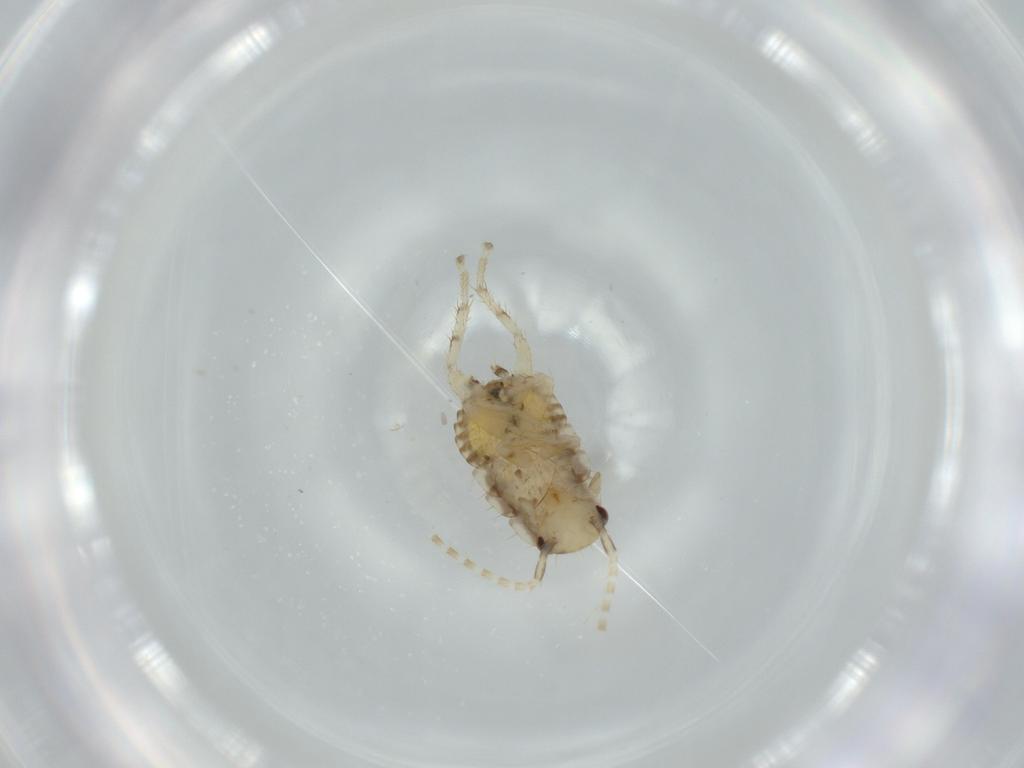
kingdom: Animalia
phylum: Arthropoda
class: Insecta
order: Blattodea
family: Ectobiidae
